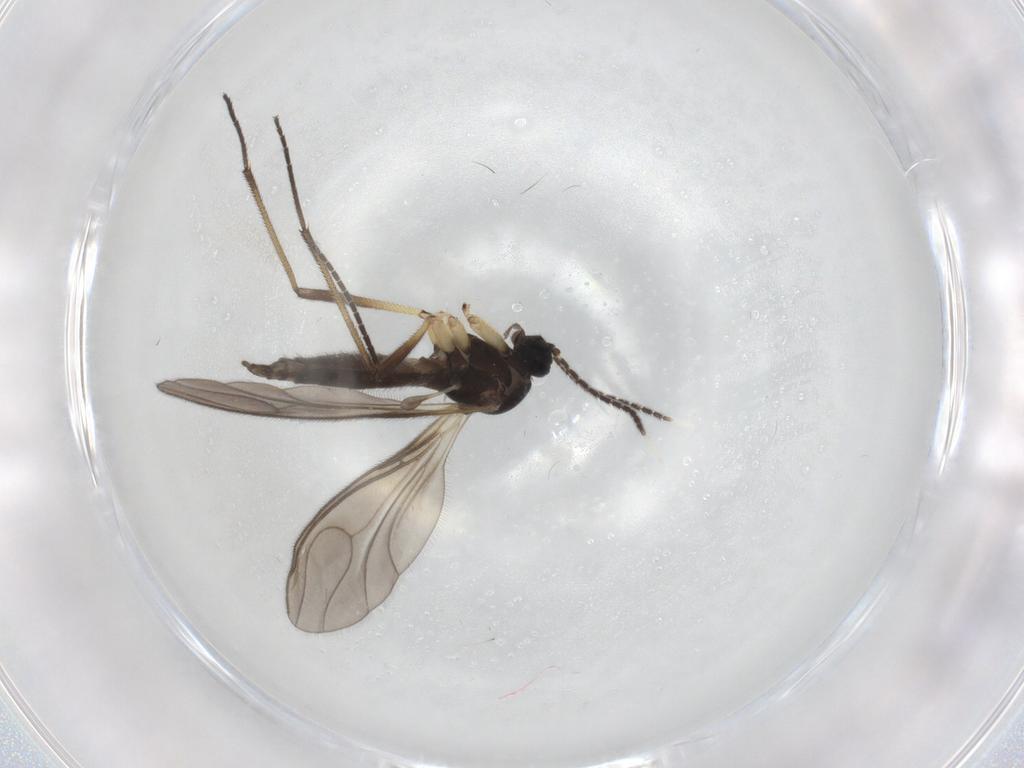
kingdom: Animalia
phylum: Arthropoda
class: Insecta
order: Diptera
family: Sciaridae
